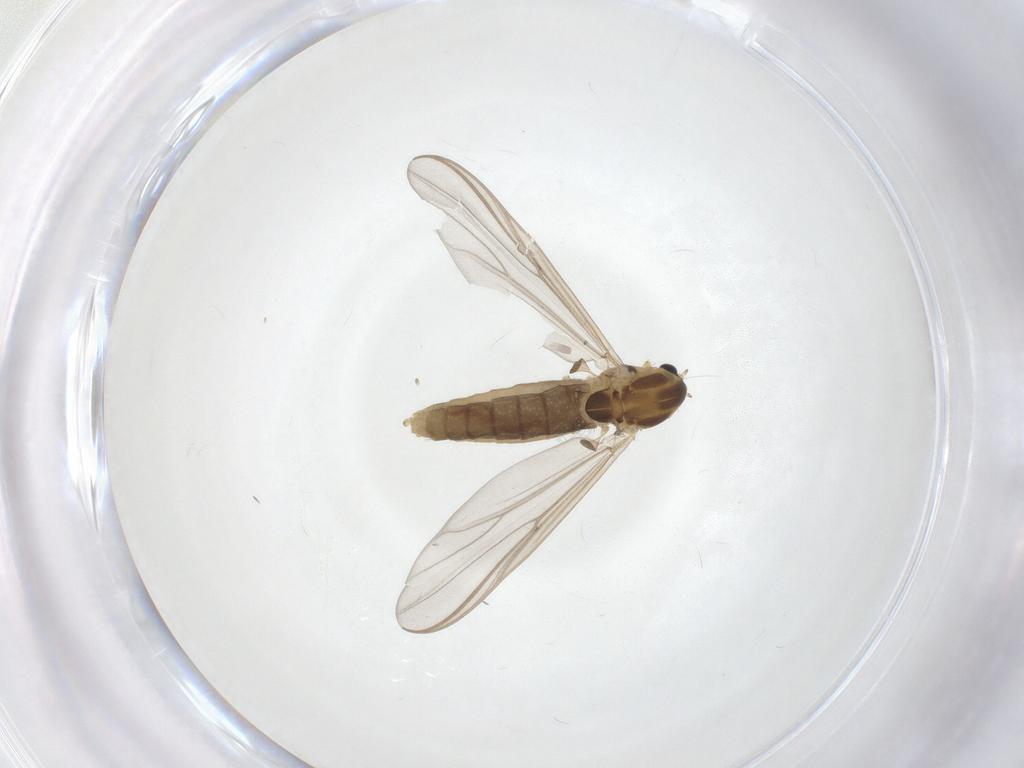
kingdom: Animalia
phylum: Arthropoda
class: Insecta
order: Diptera
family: Chironomidae
